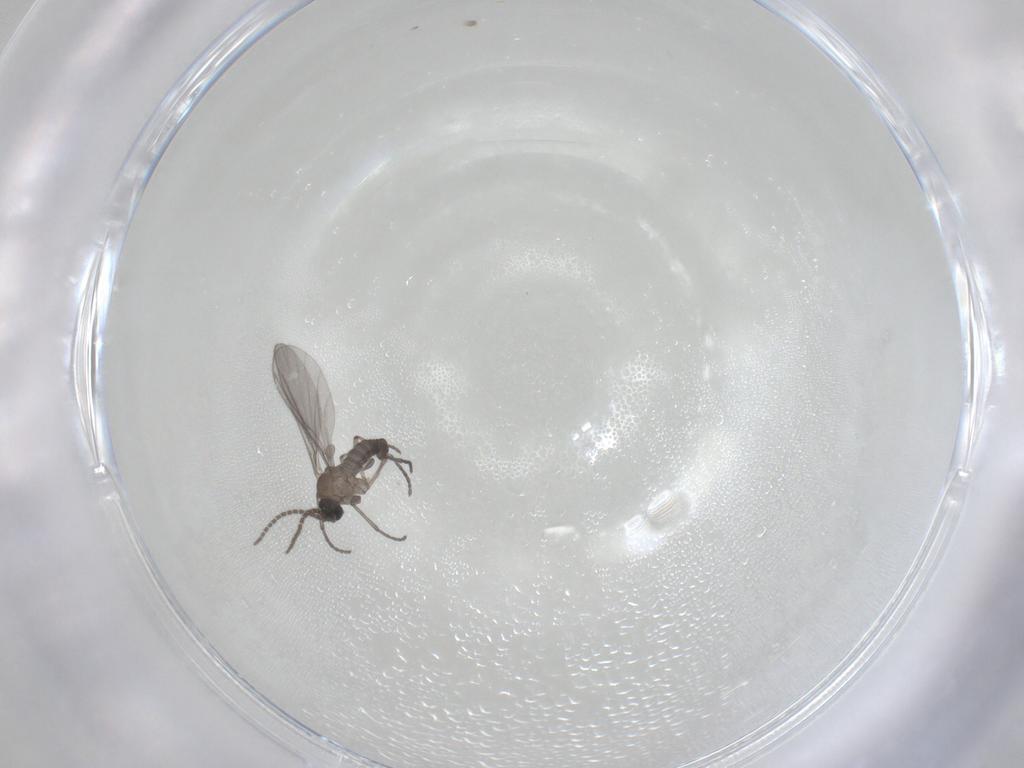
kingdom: Animalia
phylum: Arthropoda
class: Insecta
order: Diptera
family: Sciaridae
